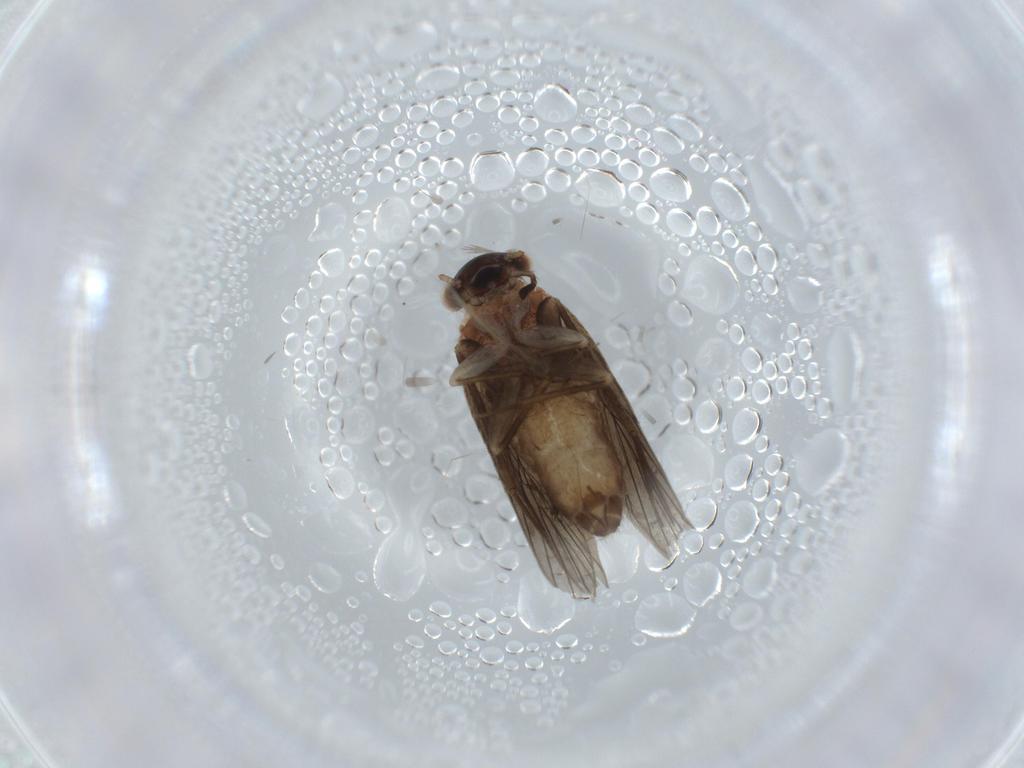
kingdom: Animalia
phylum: Arthropoda
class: Insecta
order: Psocodea
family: Lepidopsocidae
